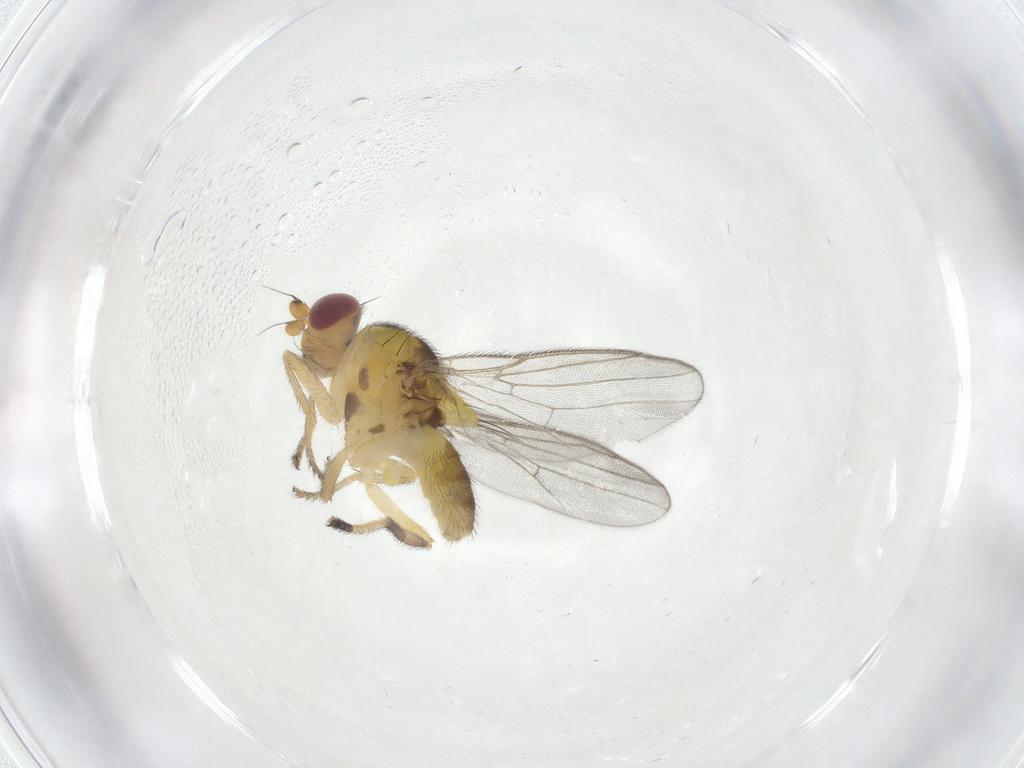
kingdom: Animalia
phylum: Arthropoda
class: Insecta
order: Diptera
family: Chloropidae
